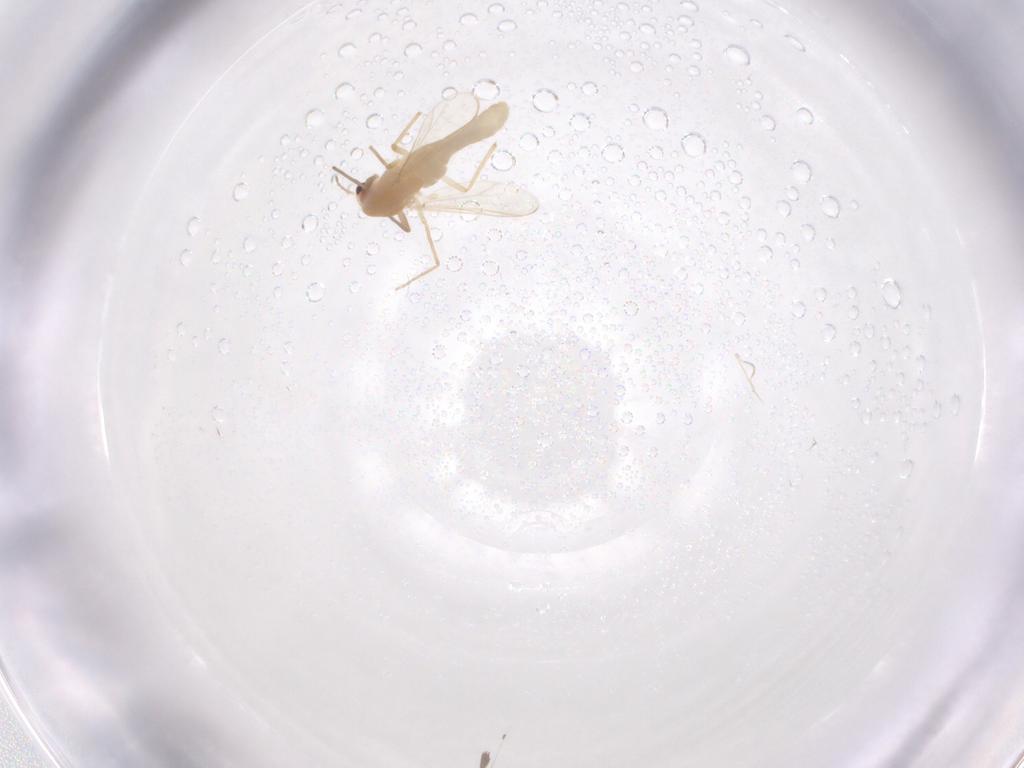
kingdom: Animalia
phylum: Arthropoda
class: Insecta
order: Diptera
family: Chironomidae
